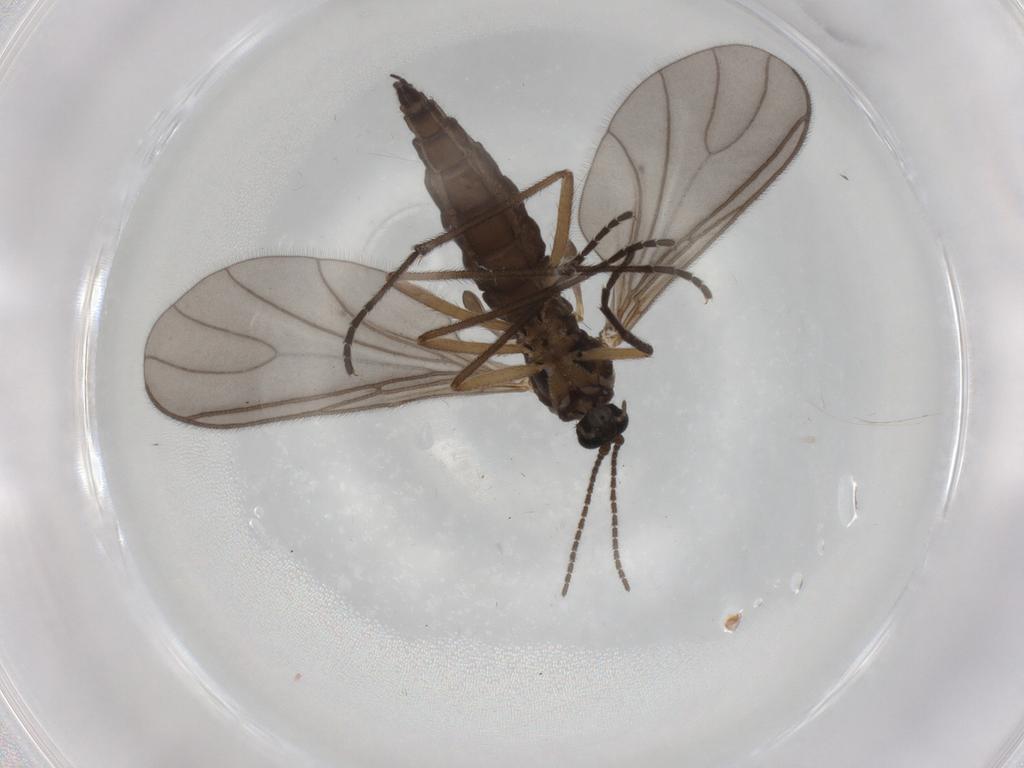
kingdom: Animalia
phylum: Arthropoda
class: Insecta
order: Diptera
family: Sciaridae
